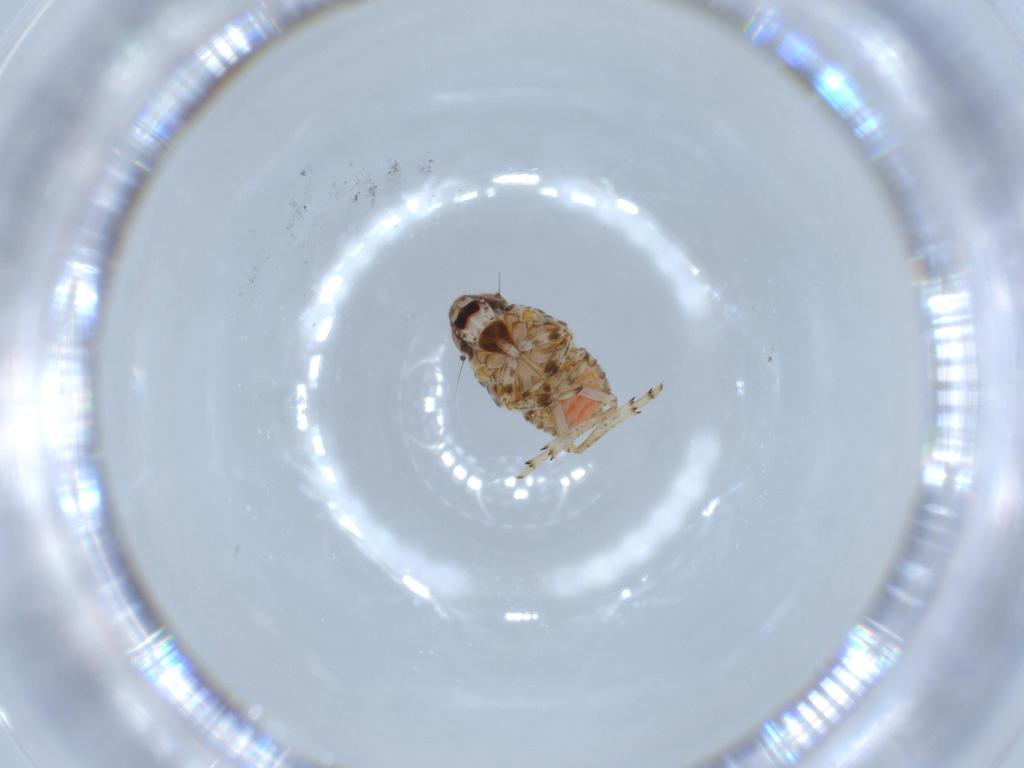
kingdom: Animalia
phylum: Arthropoda
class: Insecta
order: Hemiptera
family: Issidae
